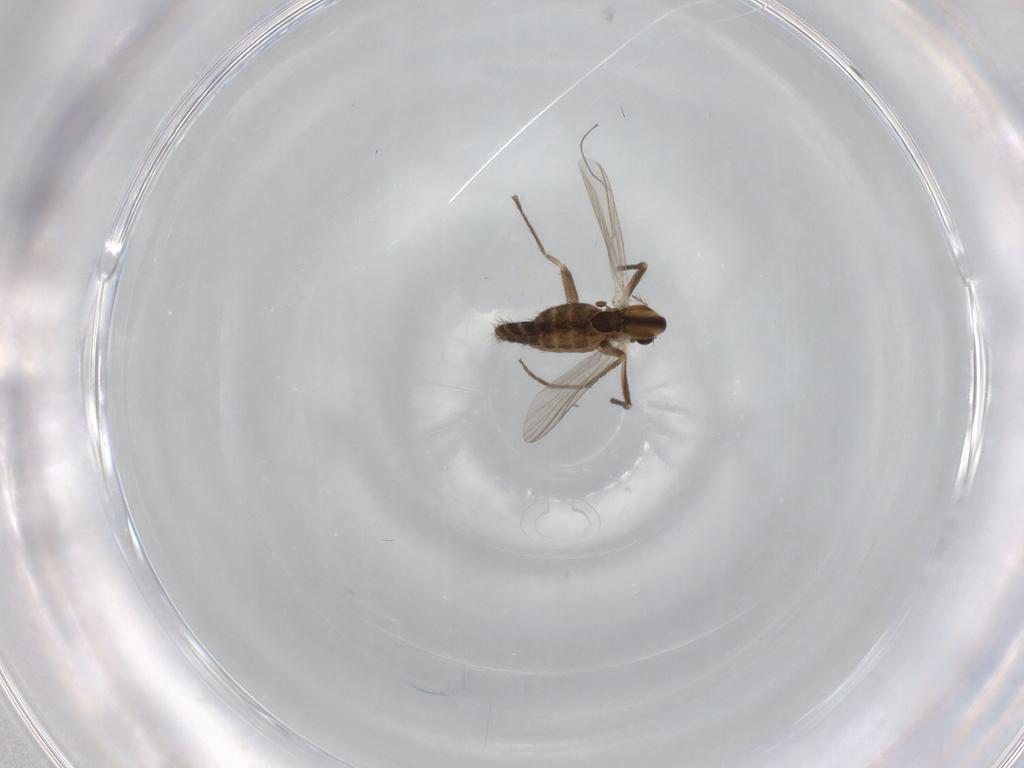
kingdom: Animalia
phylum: Arthropoda
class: Insecta
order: Diptera
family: Chironomidae
